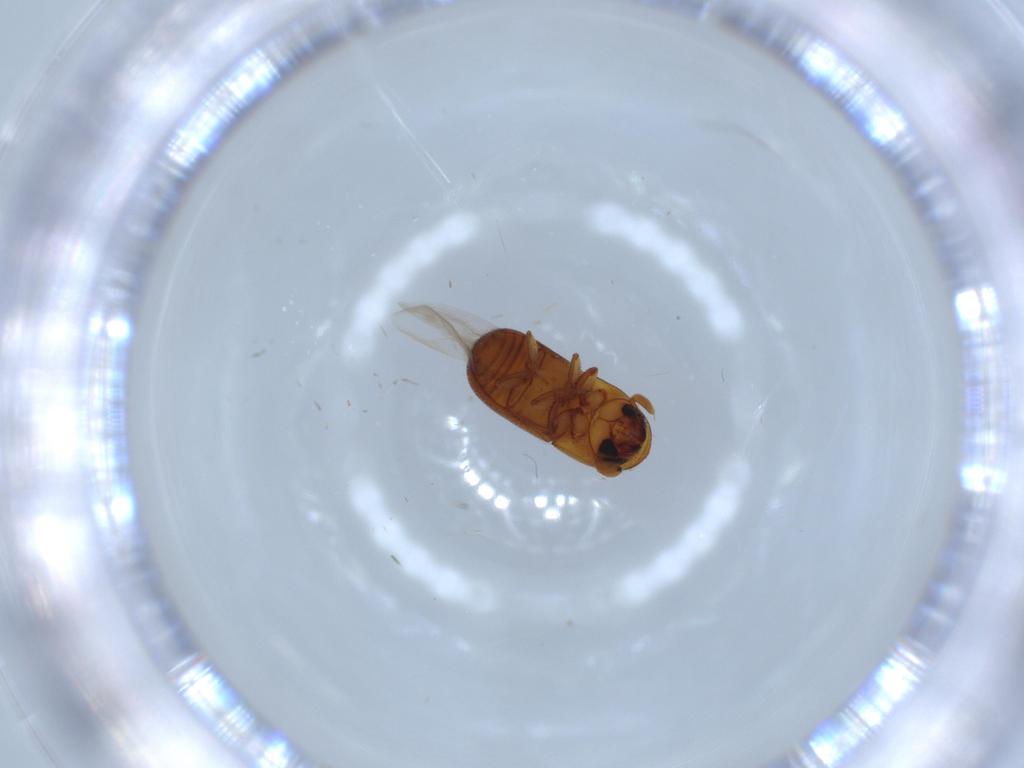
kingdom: Animalia
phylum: Arthropoda
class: Insecta
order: Coleoptera
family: Curculionidae
